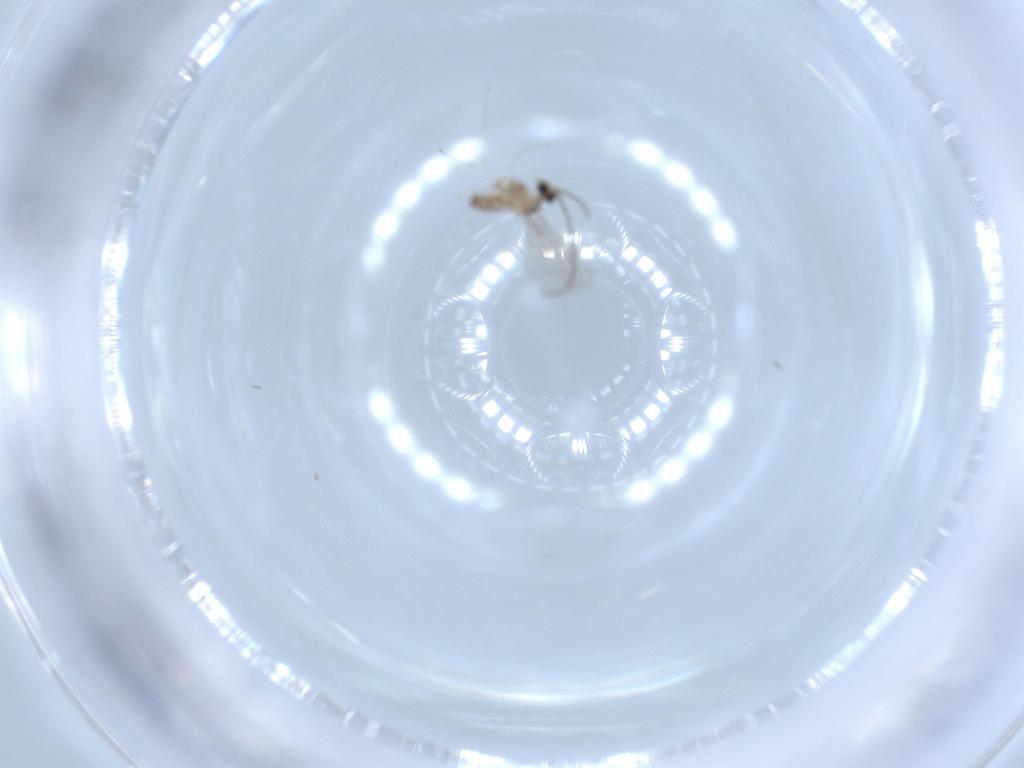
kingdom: Animalia
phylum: Arthropoda
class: Insecta
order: Diptera
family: Cecidomyiidae
